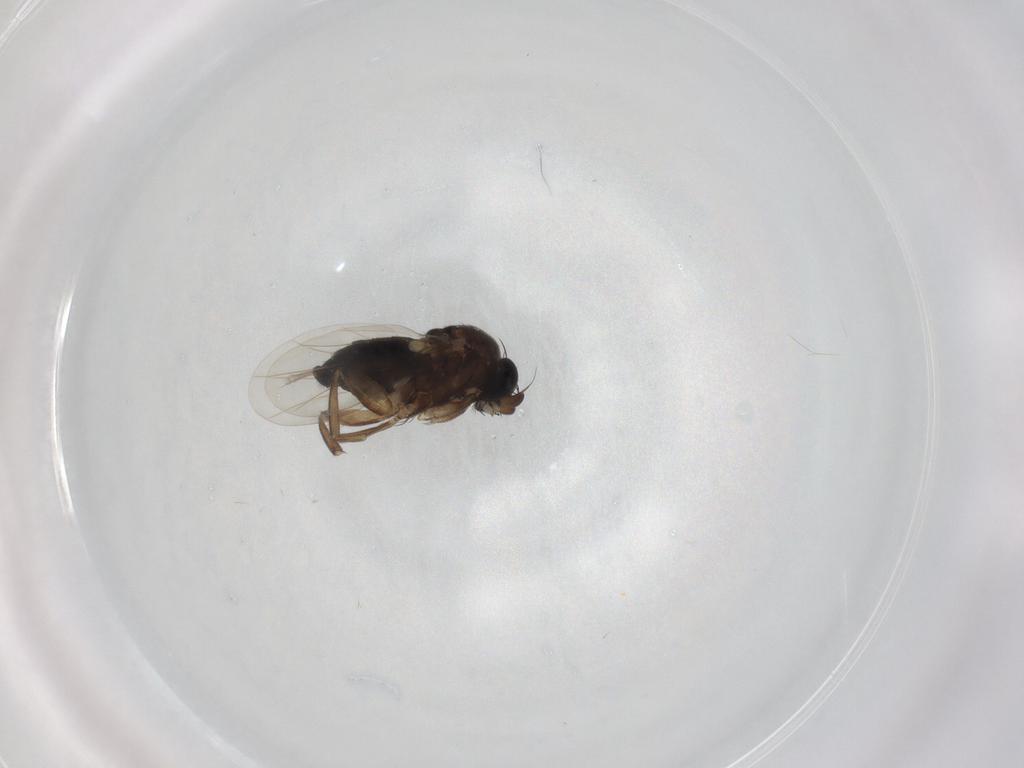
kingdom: Animalia
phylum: Arthropoda
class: Insecta
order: Diptera
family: Phoridae
